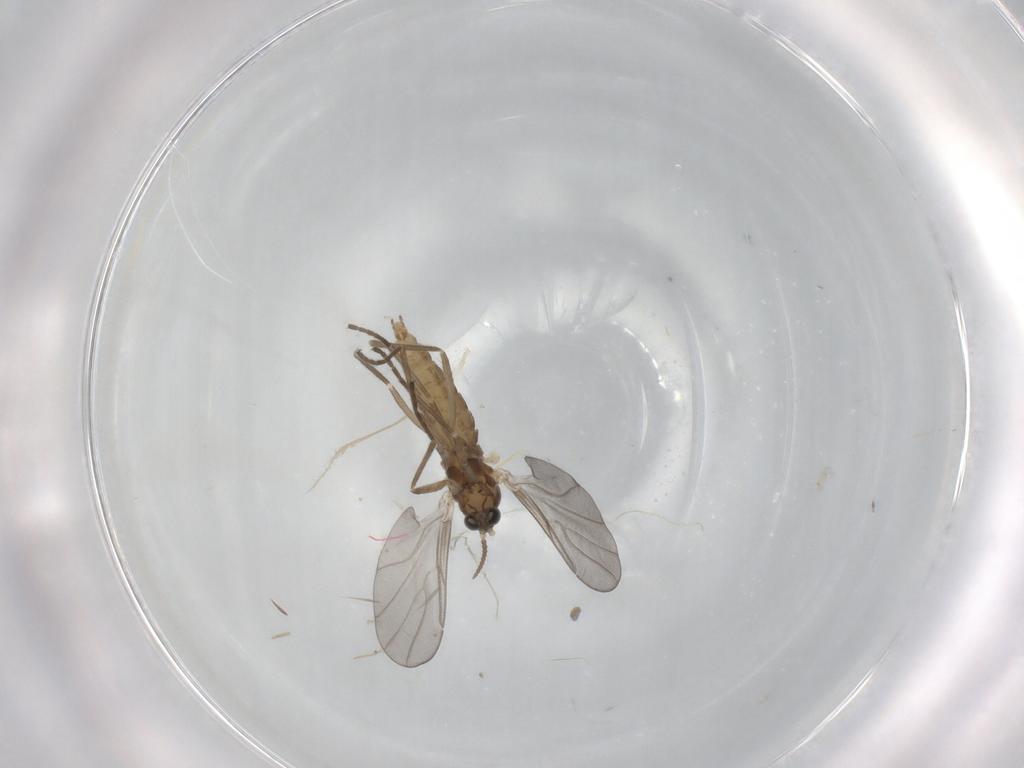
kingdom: Animalia
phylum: Arthropoda
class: Insecta
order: Diptera
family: Cecidomyiidae
